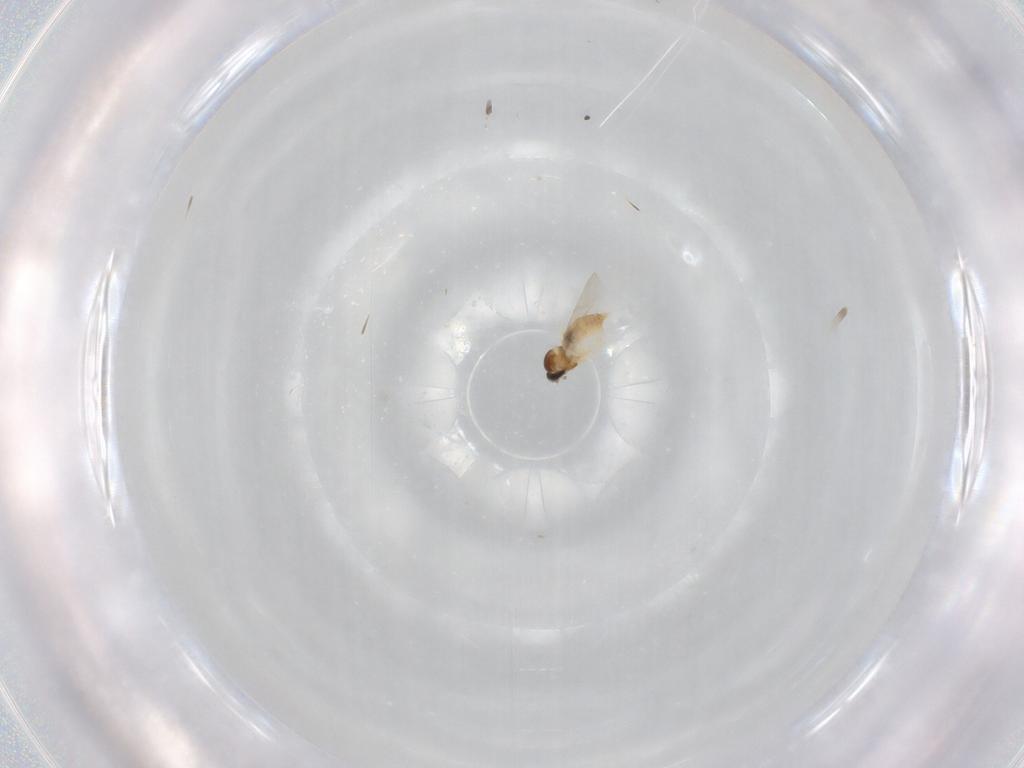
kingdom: Animalia
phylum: Arthropoda
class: Insecta
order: Diptera
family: Cecidomyiidae
